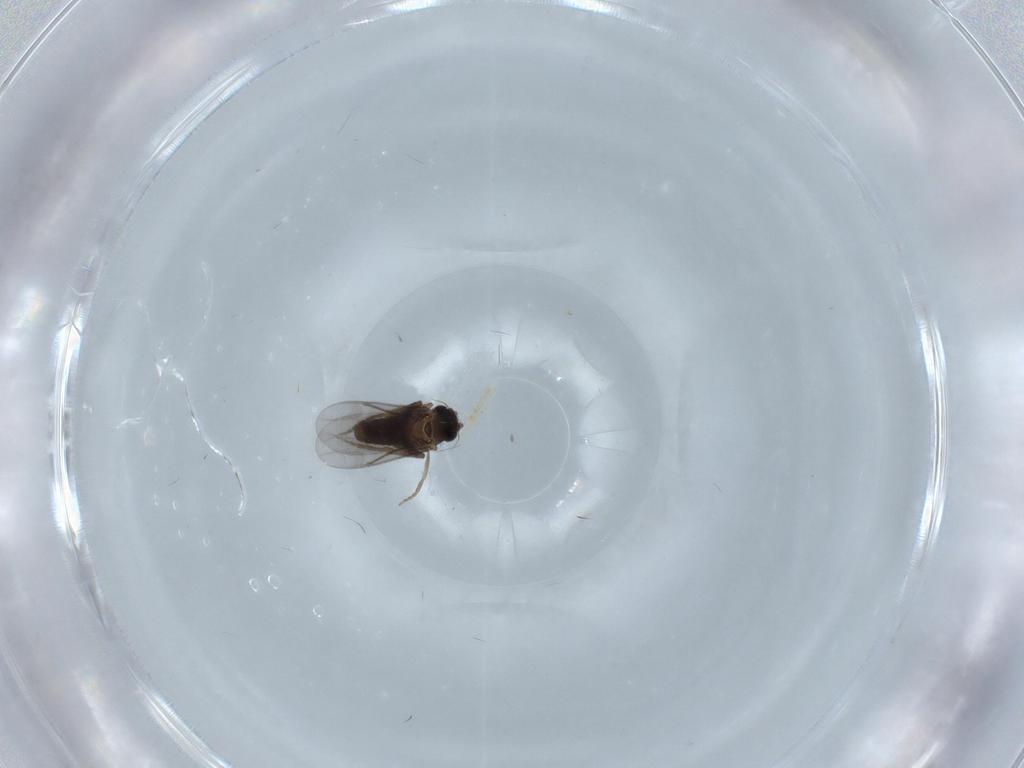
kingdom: Animalia
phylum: Arthropoda
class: Insecta
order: Diptera
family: Corethrellidae
